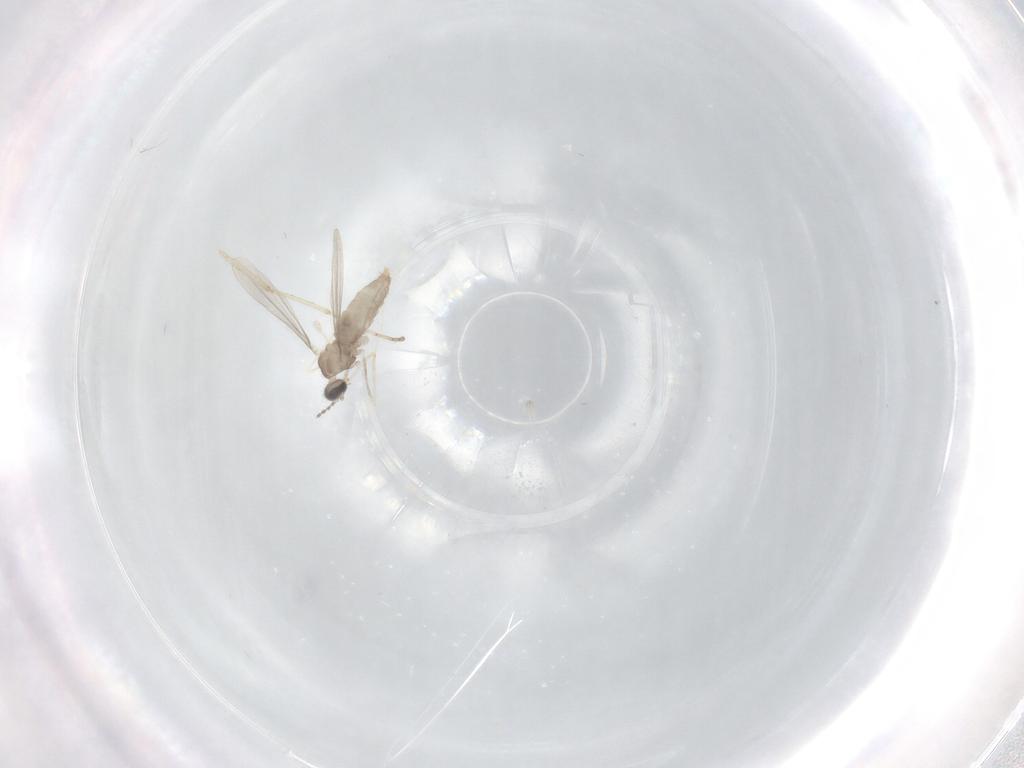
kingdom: Animalia
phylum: Arthropoda
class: Insecta
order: Diptera
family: Cecidomyiidae
